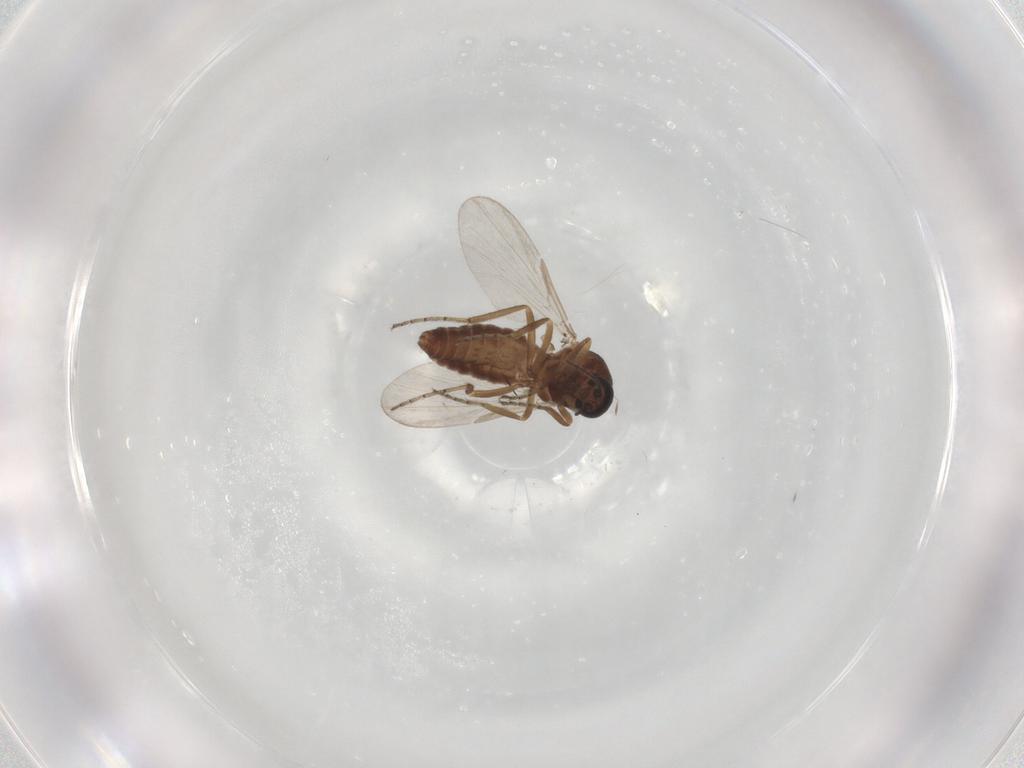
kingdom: Animalia
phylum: Arthropoda
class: Insecta
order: Diptera
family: Ceratopogonidae
